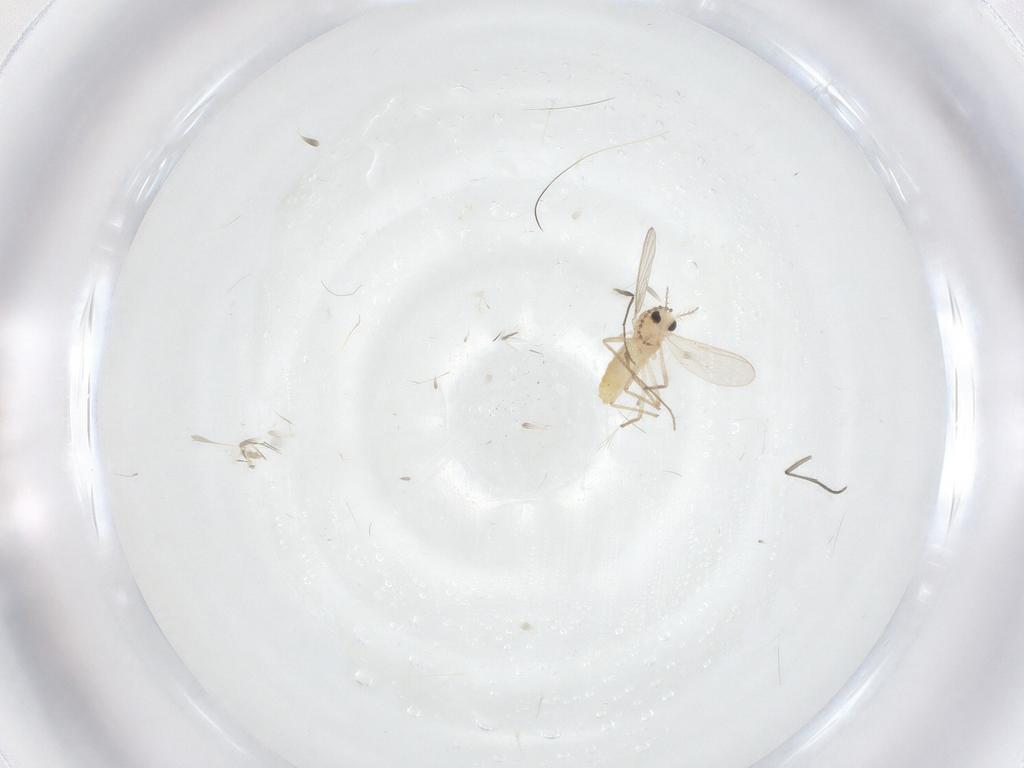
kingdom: Animalia
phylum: Arthropoda
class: Insecta
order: Diptera
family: Cecidomyiidae
